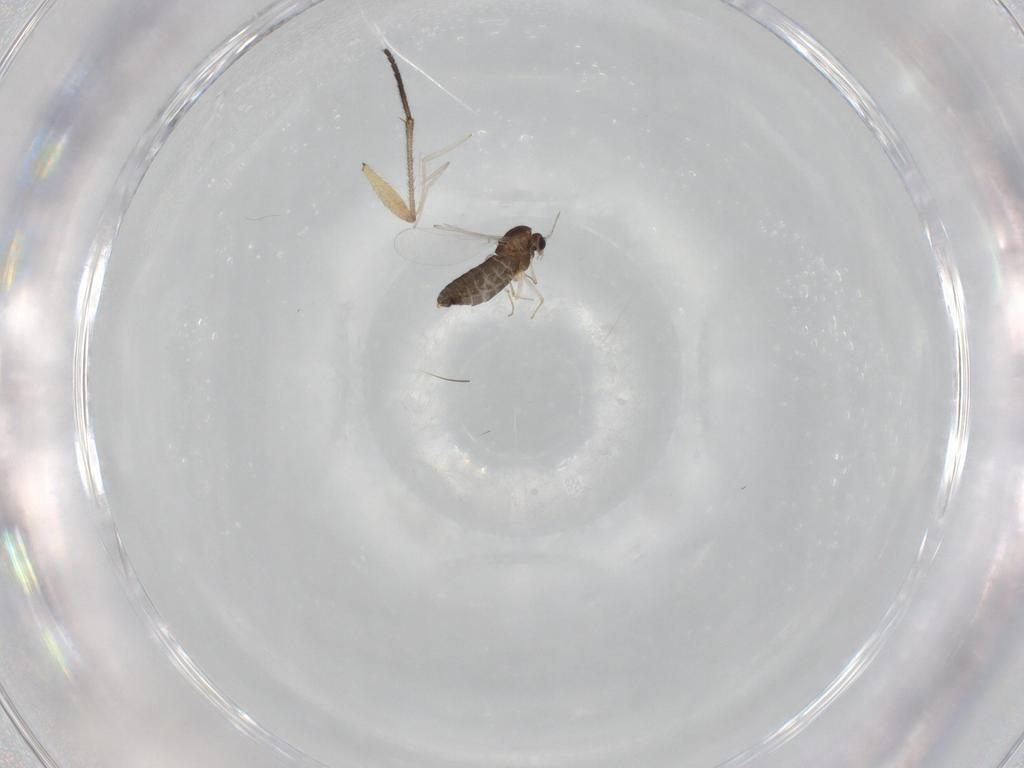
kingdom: Animalia
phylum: Arthropoda
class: Insecta
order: Diptera
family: Chironomidae
